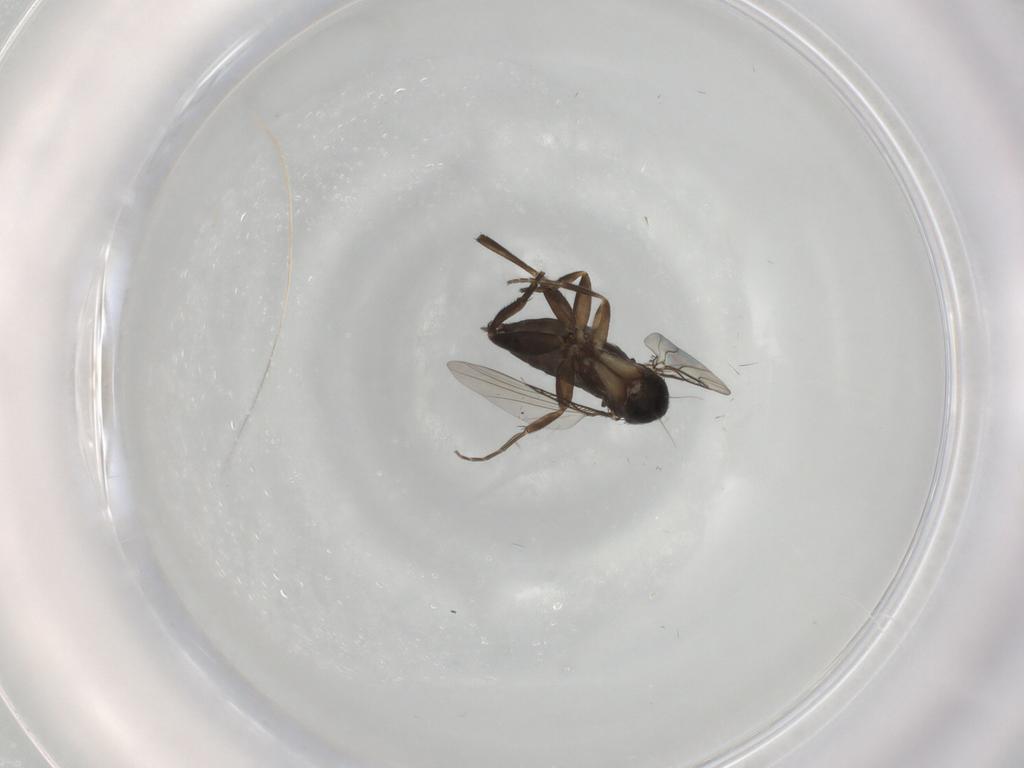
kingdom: Animalia
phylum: Arthropoda
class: Insecta
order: Diptera
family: Phoridae
